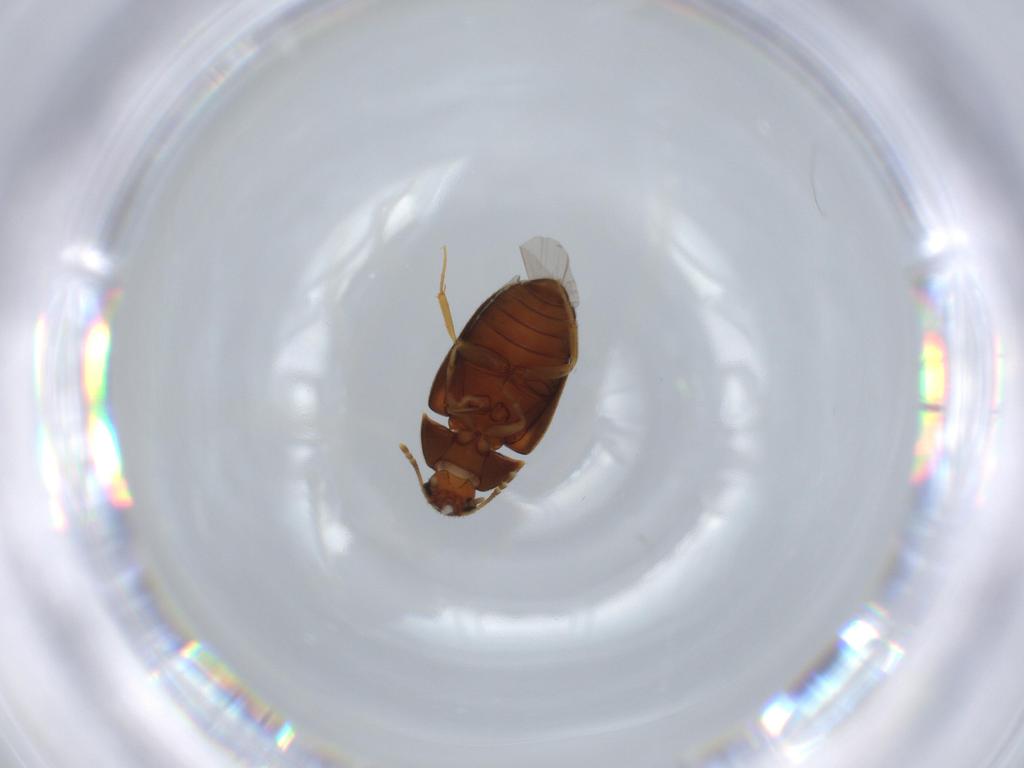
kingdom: Animalia
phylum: Arthropoda
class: Insecta
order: Coleoptera
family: Mycetophagidae
